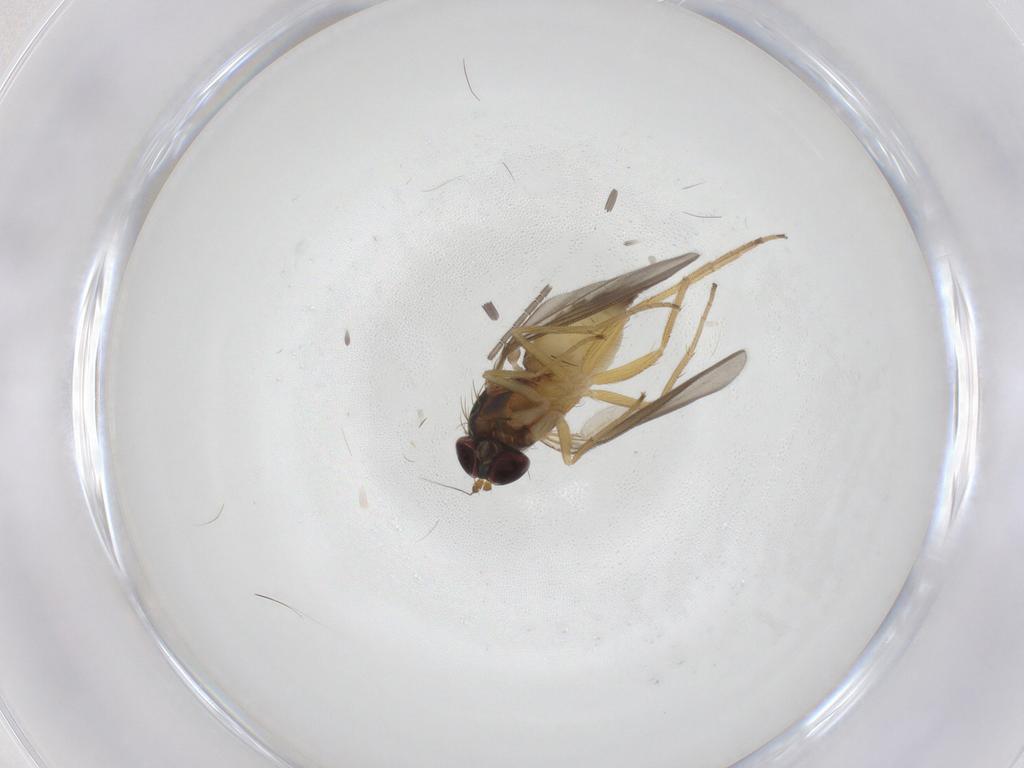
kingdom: Animalia
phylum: Arthropoda
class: Insecta
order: Diptera
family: Dolichopodidae
